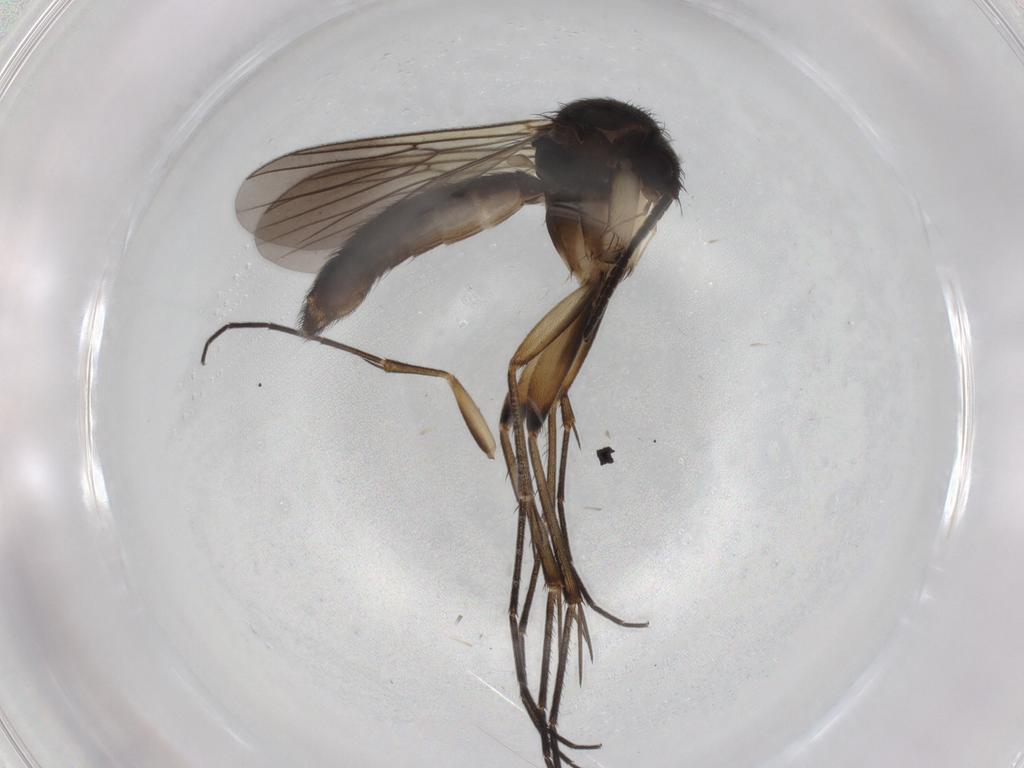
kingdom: Animalia
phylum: Arthropoda
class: Insecta
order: Diptera
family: Mycetophilidae
